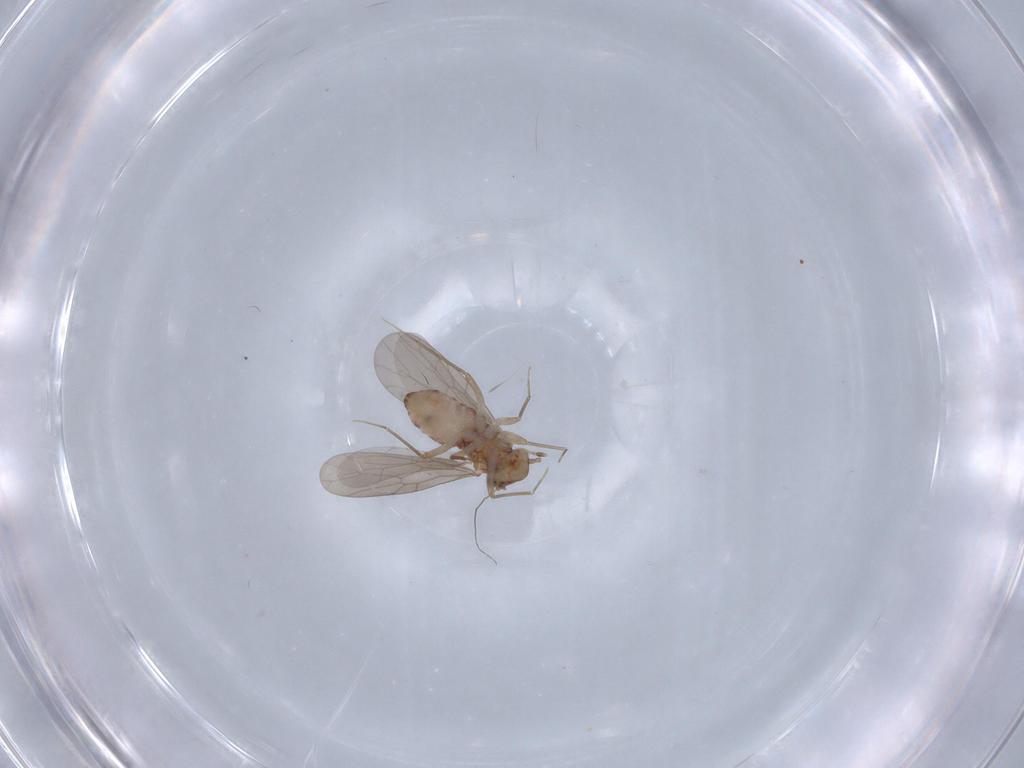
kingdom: Animalia
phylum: Arthropoda
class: Insecta
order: Psocodea
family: Lepidopsocidae
